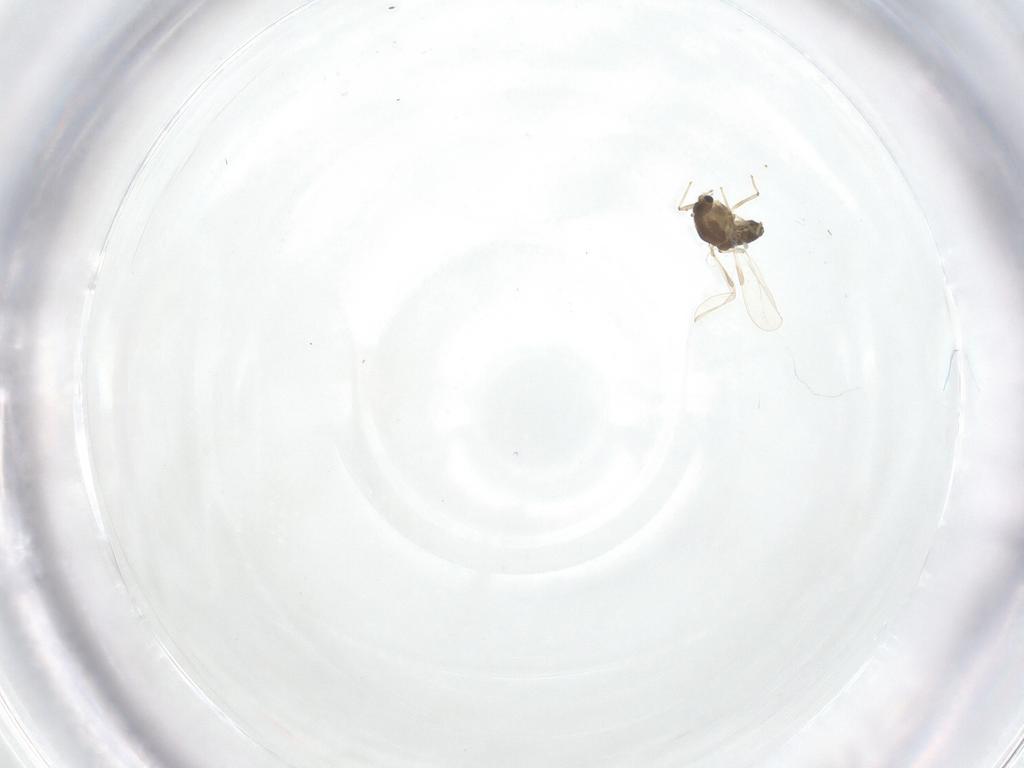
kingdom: Animalia
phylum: Arthropoda
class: Insecta
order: Diptera
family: Chironomidae
